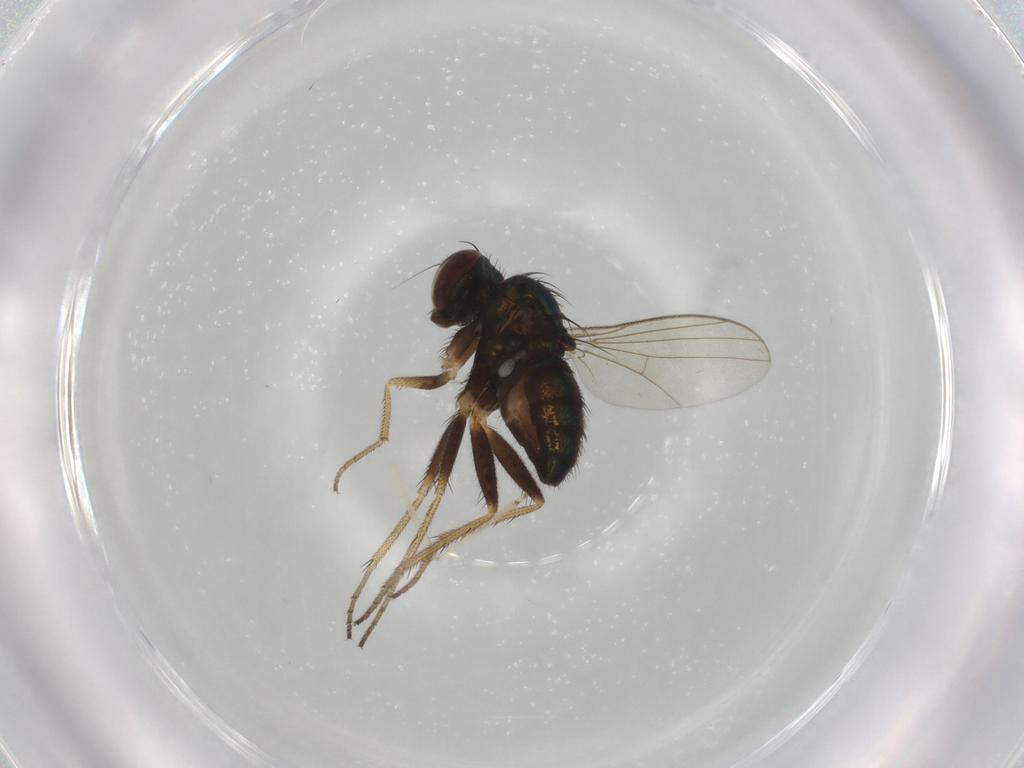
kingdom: Animalia
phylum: Arthropoda
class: Insecta
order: Diptera
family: Dolichopodidae
